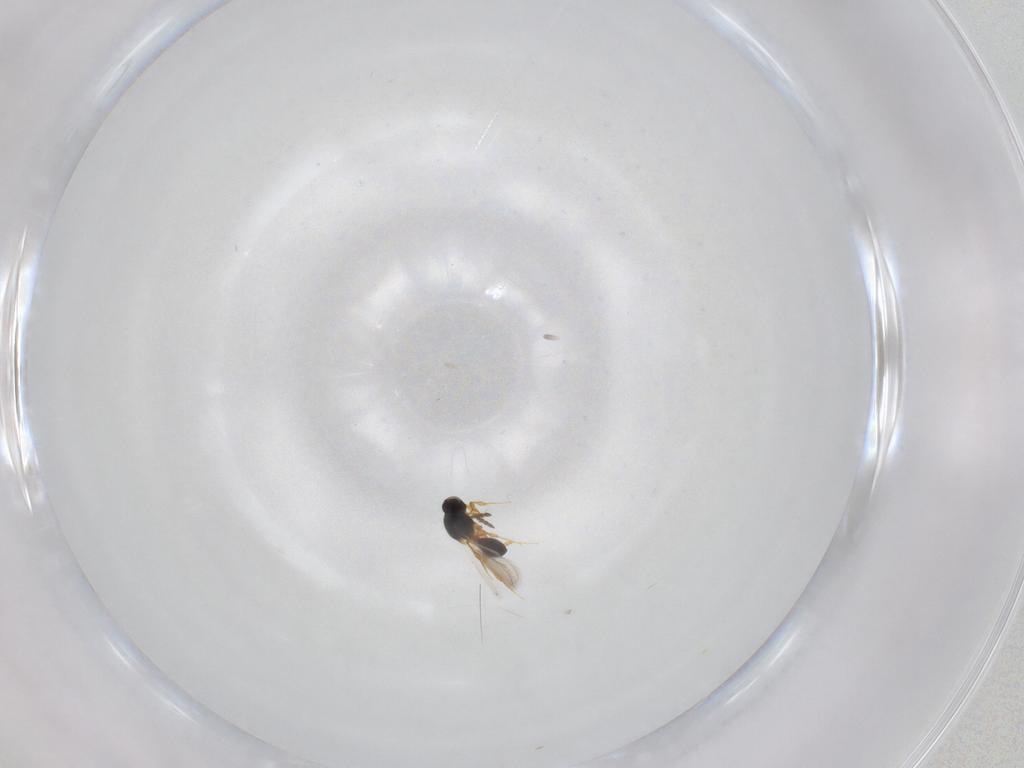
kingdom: Animalia
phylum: Arthropoda
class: Insecta
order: Hymenoptera
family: Platygastridae
